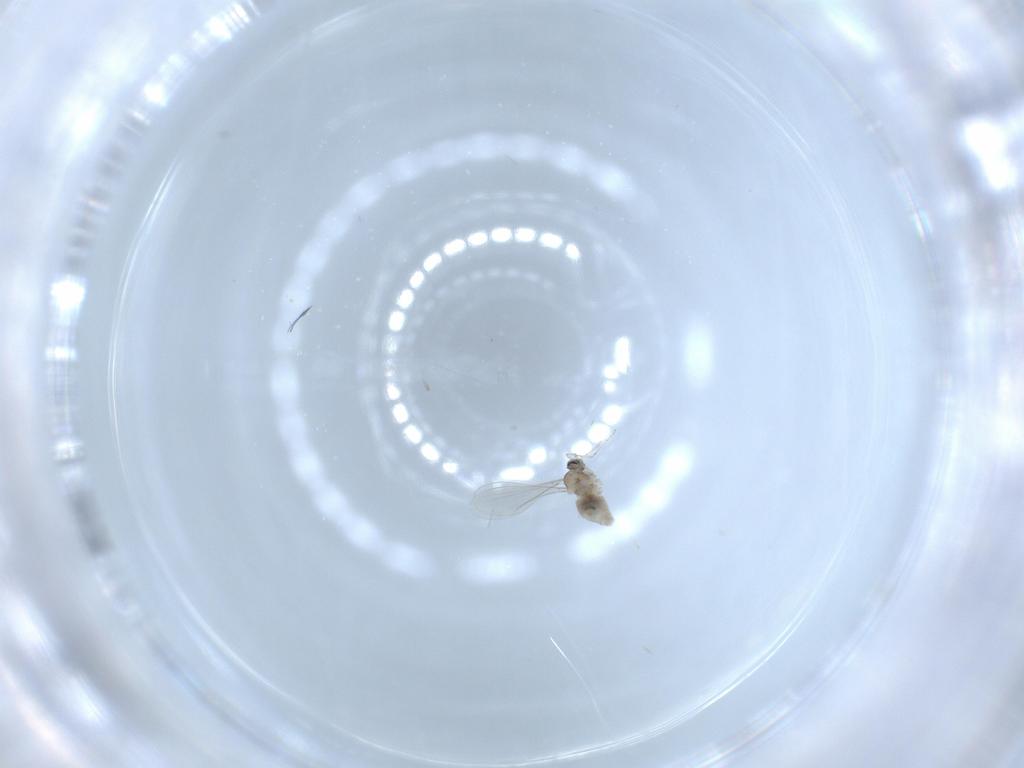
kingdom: Animalia
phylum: Arthropoda
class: Insecta
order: Diptera
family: Cecidomyiidae
